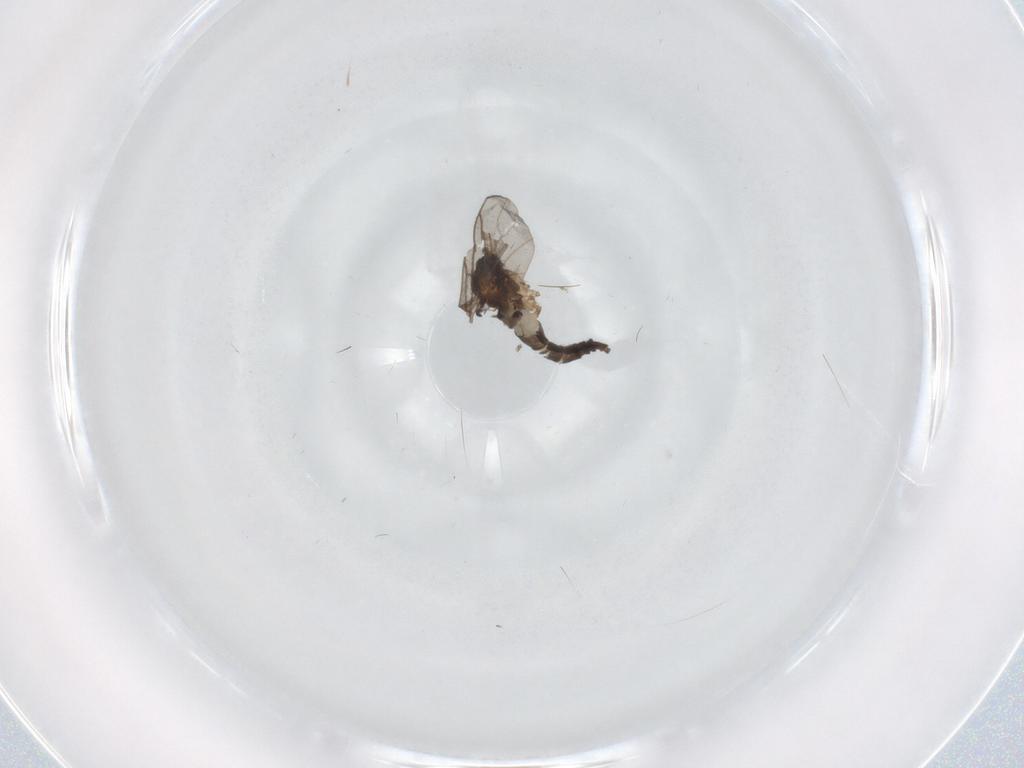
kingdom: Animalia
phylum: Arthropoda
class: Insecta
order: Diptera
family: Sciaridae
